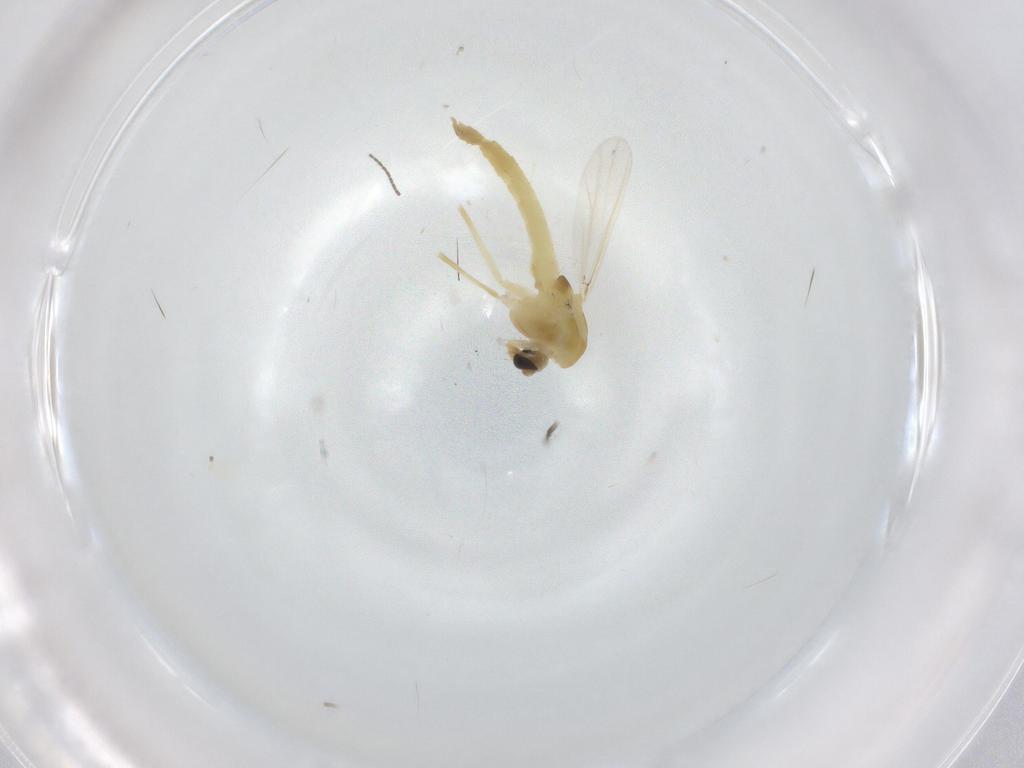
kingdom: Animalia
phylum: Arthropoda
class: Insecta
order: Diptera
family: Sciaridae
